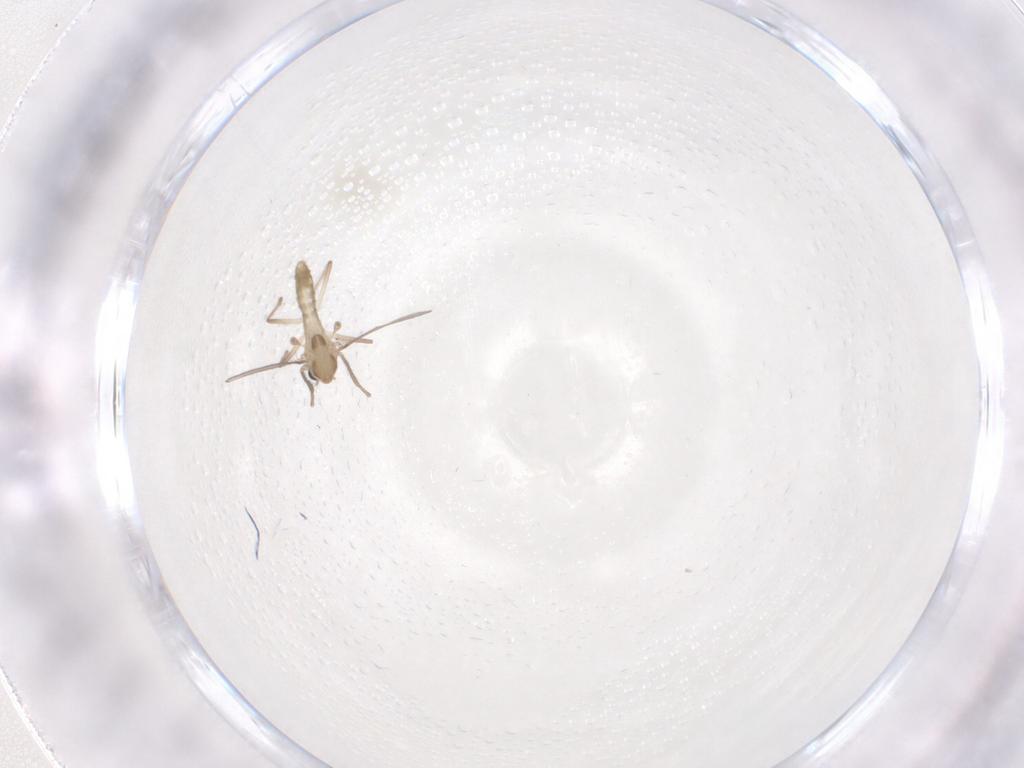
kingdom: Animalia
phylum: Arthropoda
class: Insecta
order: Diptera
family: Chironomidae
